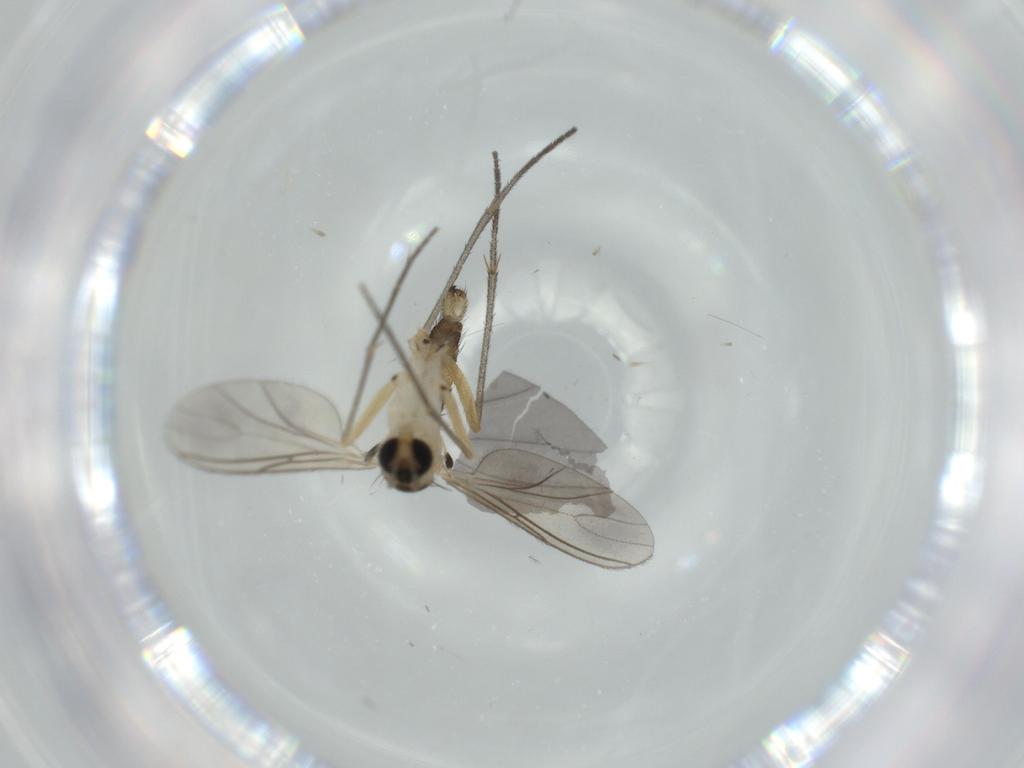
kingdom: Animalia
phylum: Arthropoda
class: Insecta
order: Diptera
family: Sciaridae
